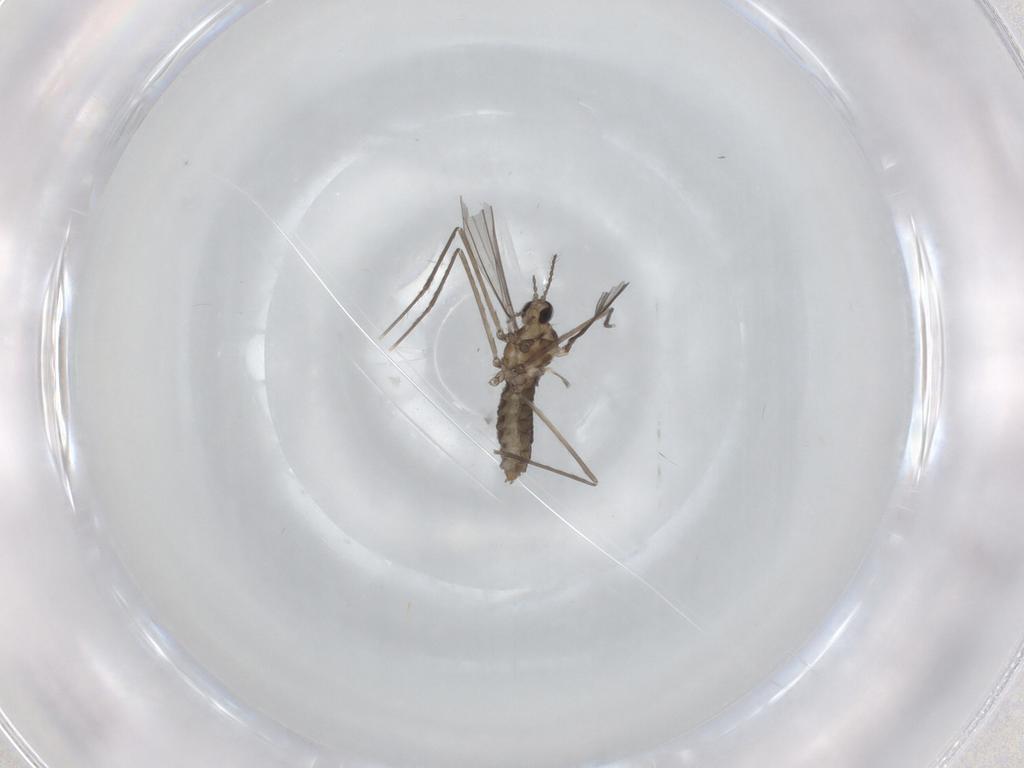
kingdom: Animalia
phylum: Arthropoda
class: Insecta
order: Diptera
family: Cecidomyiidae
